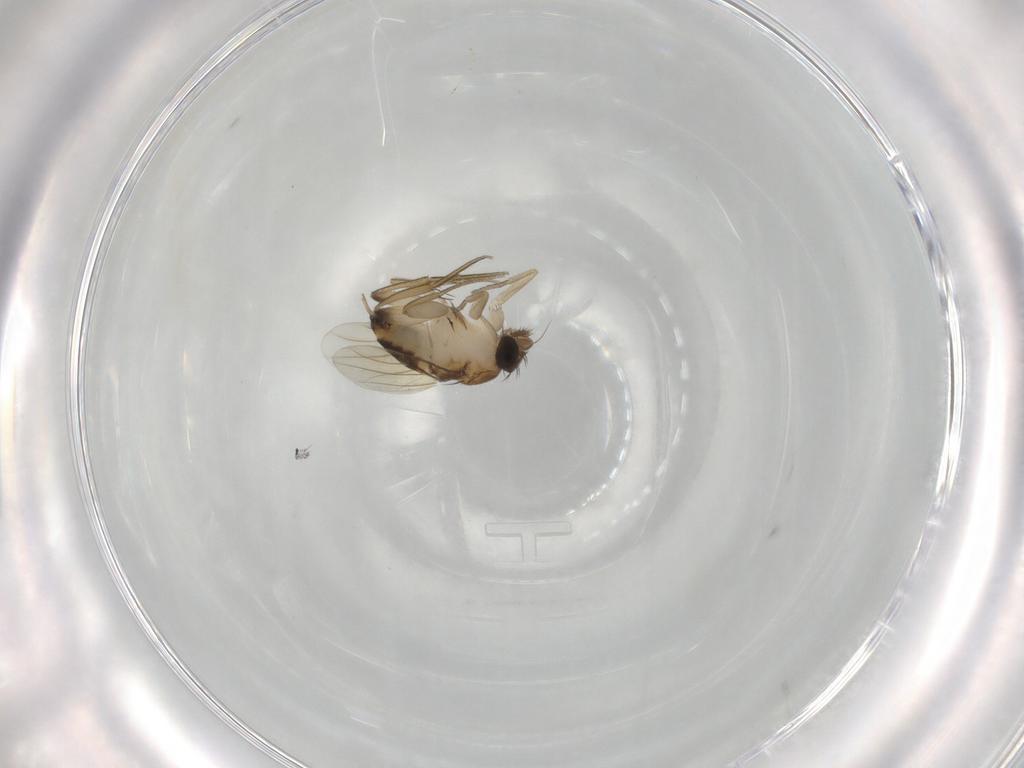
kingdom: Animalia
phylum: Arthropoda
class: Insecta
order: Diptera
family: Cecidomyiidae
